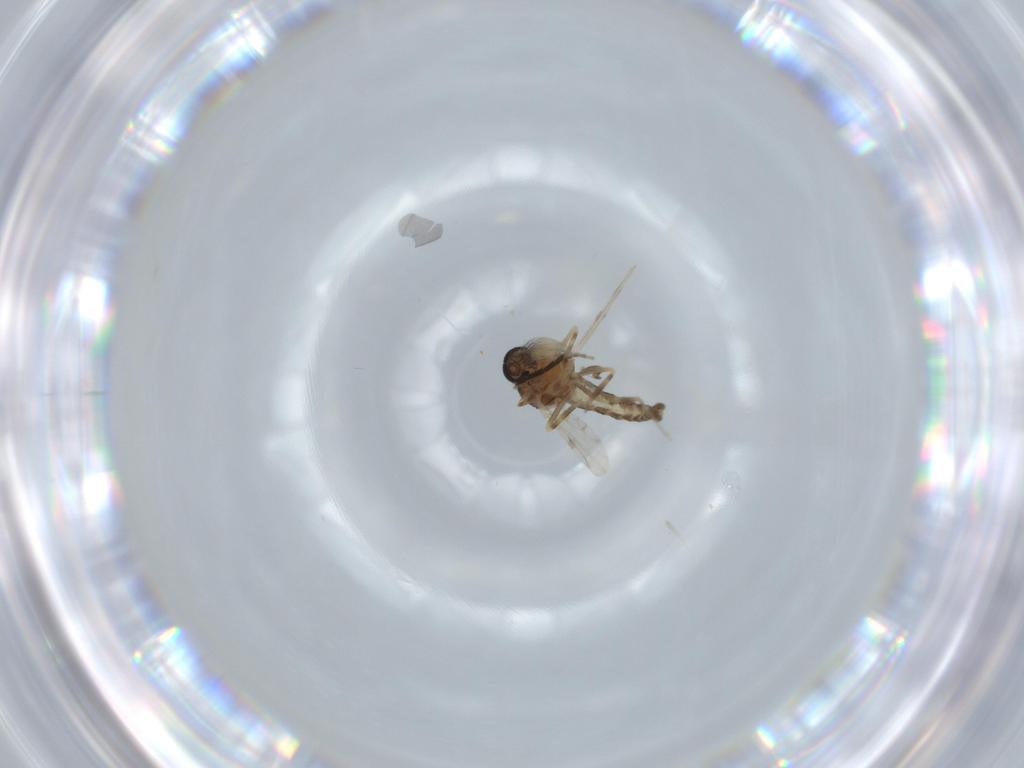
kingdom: Animalia
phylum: Arthropoda
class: Insecta
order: Diptera
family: Ceratopogonidae
